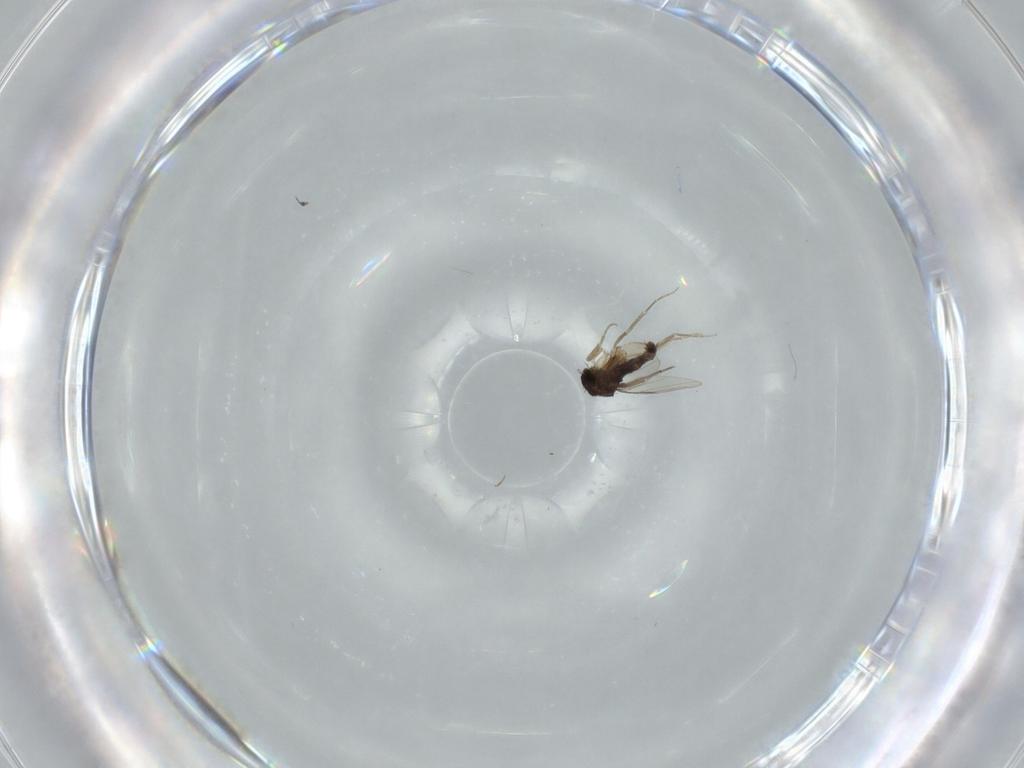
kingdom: Animalia
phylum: Arthropoda
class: Insecta
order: Diptera
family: Phoridae
